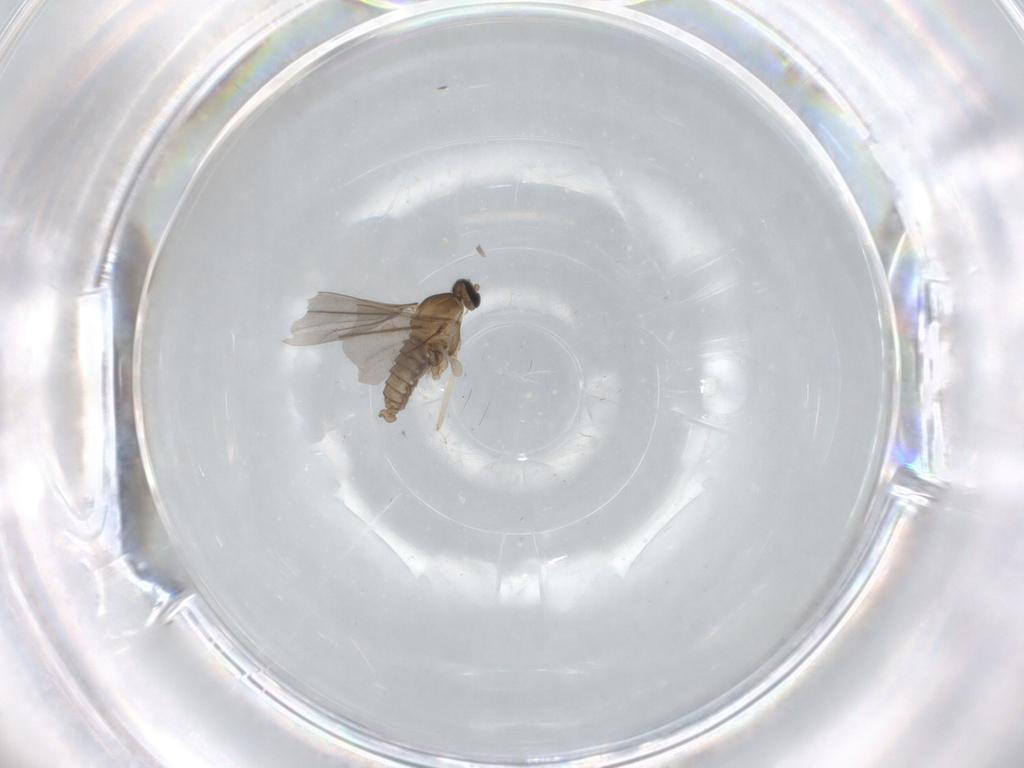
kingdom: Animalia
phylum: Arthropoda
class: Insecta
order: Diptera
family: Cecidomyiidae
